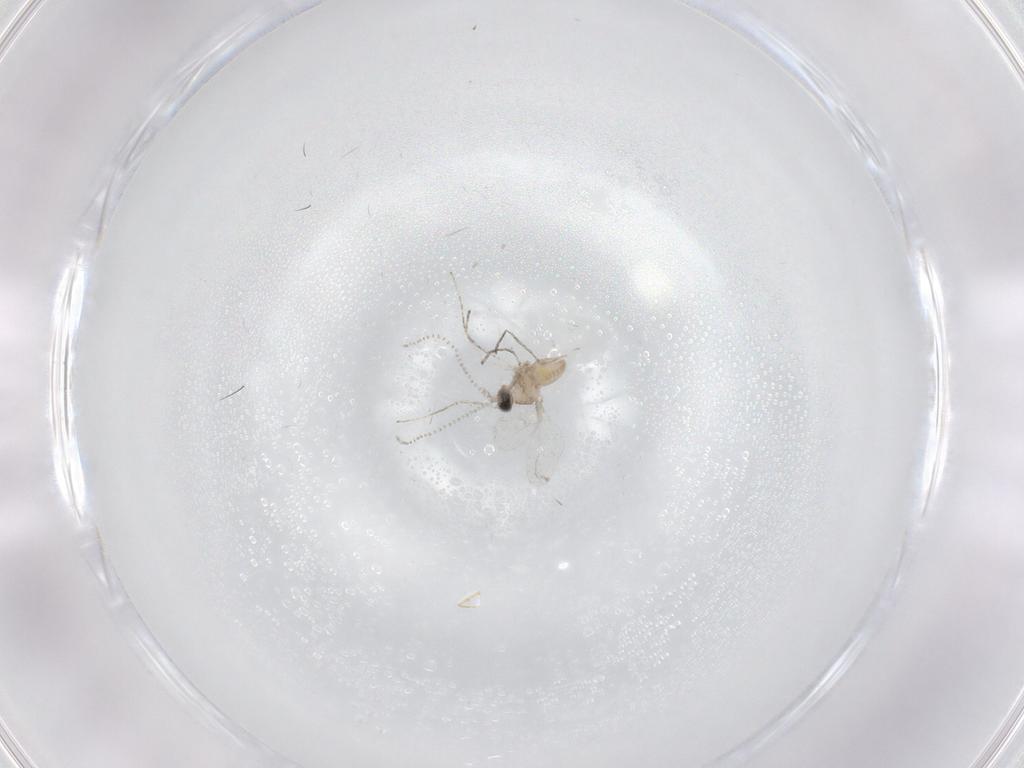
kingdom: Animalia
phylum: Arthropoda
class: Insecta
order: Diptera
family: Cecidomyiidae
